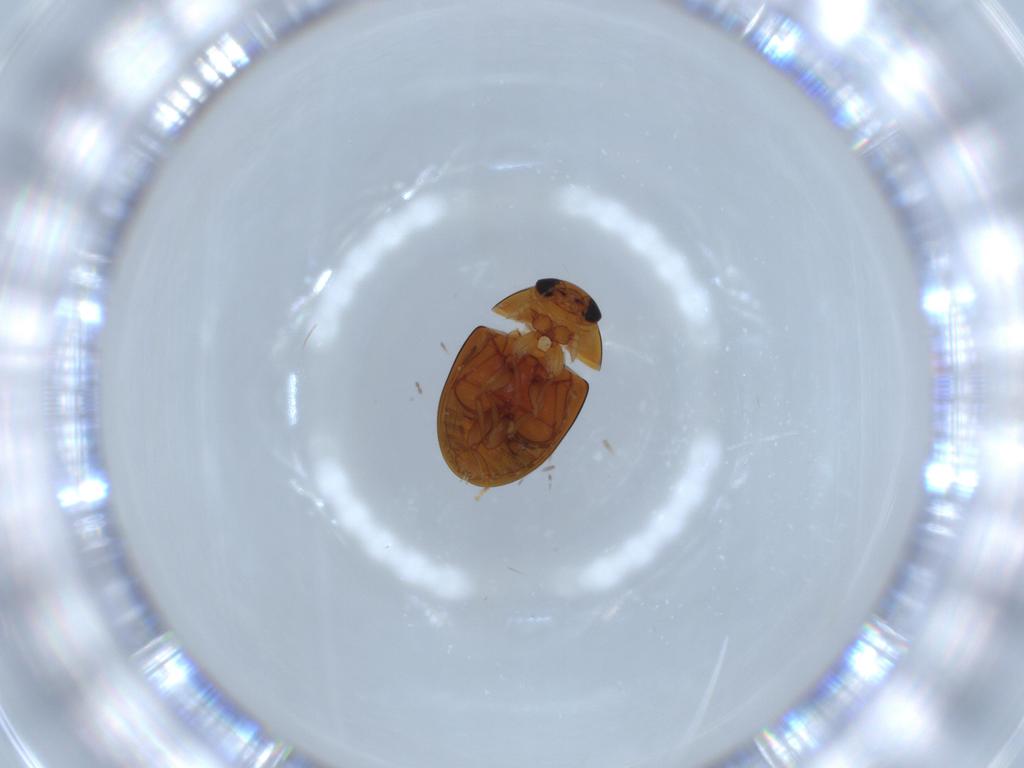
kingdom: Animalia
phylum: Arthropoda
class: Insecta
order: Coleoptera
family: Phalacridae
